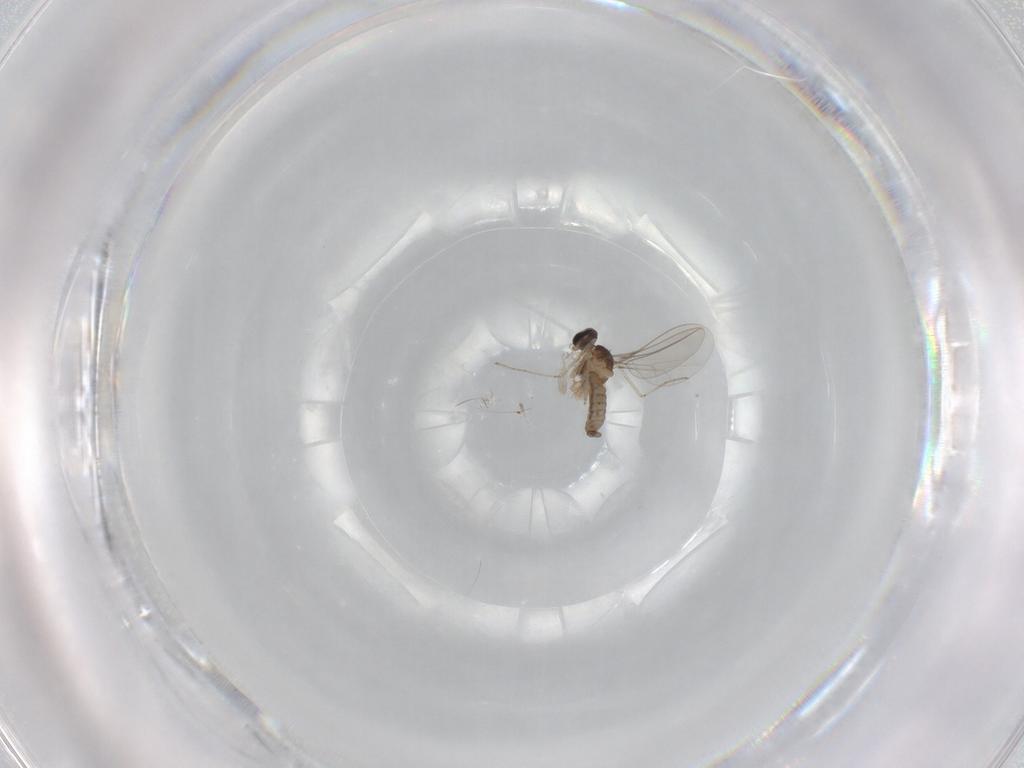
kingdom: Animalia
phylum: Arthropoda
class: Insecta
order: Diptera
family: Cecidomyiidae
